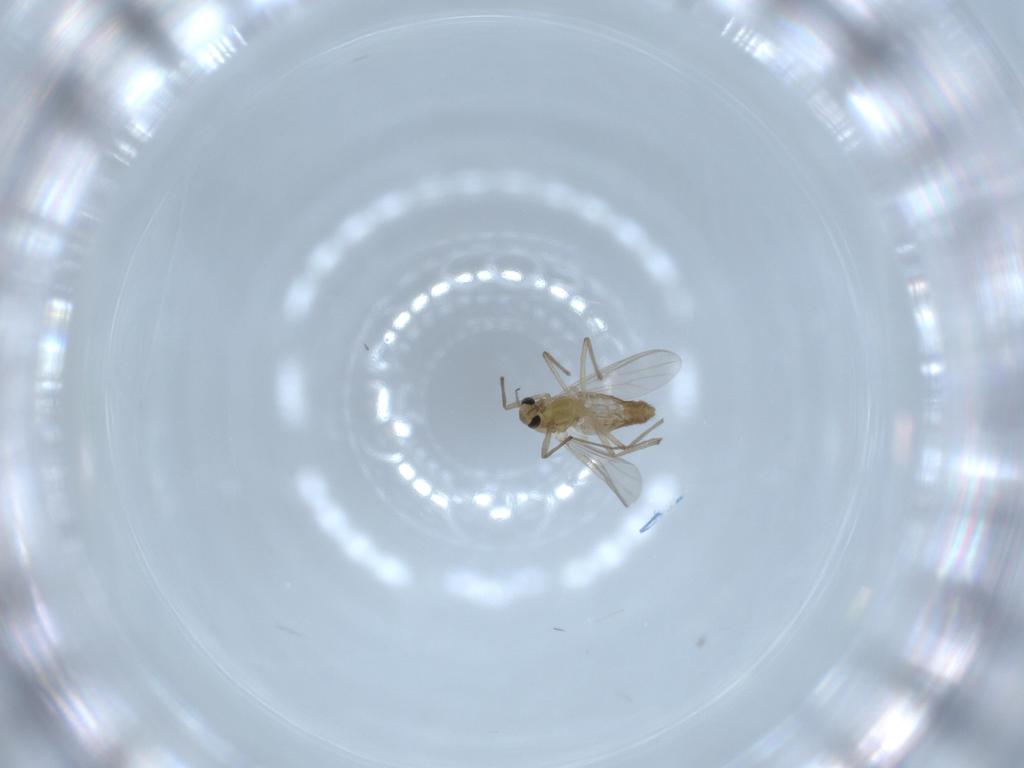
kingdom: Animalia
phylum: Arthropoda
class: Insecta
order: Diptera
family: Chironomidae
